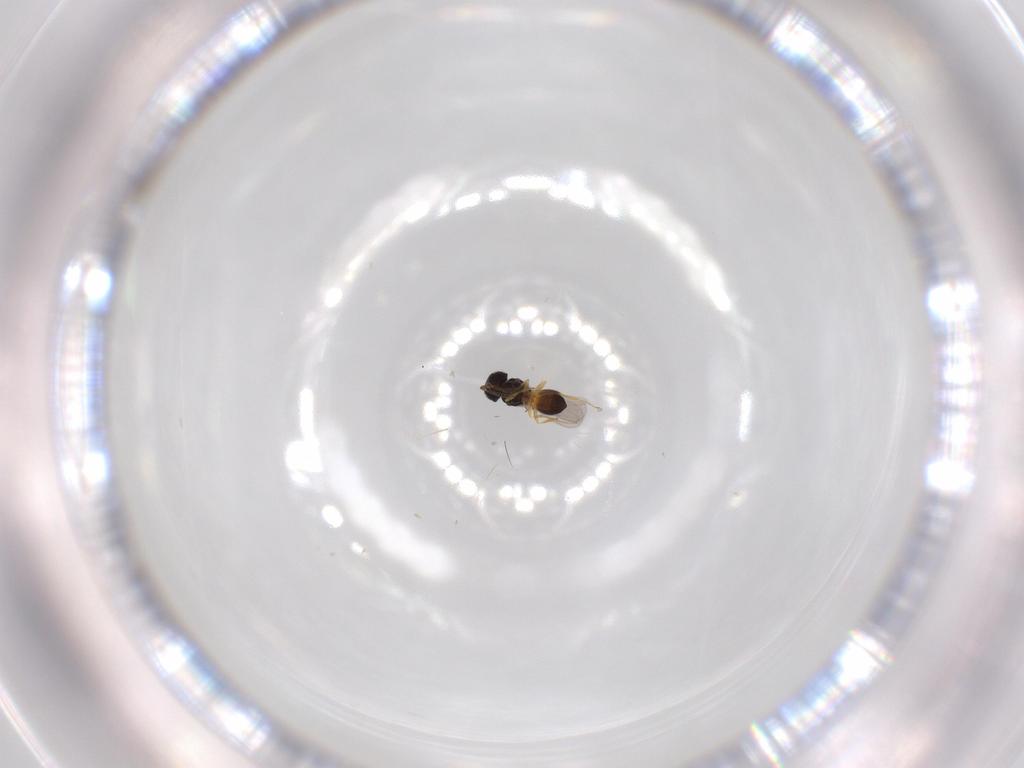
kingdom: Animalia
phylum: Arthropoda
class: Insecta
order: Hymenoptera
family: Scelionidae
